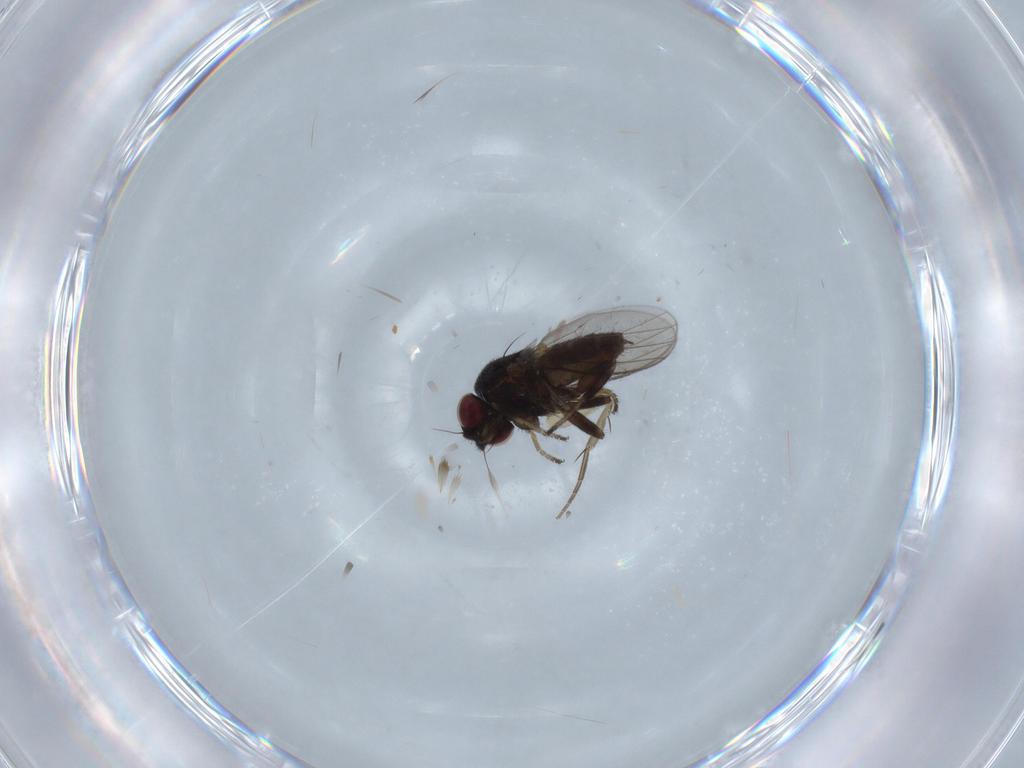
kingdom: Animalia
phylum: Arthropoda
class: Insecta
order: Diptera
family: Milichiidae
